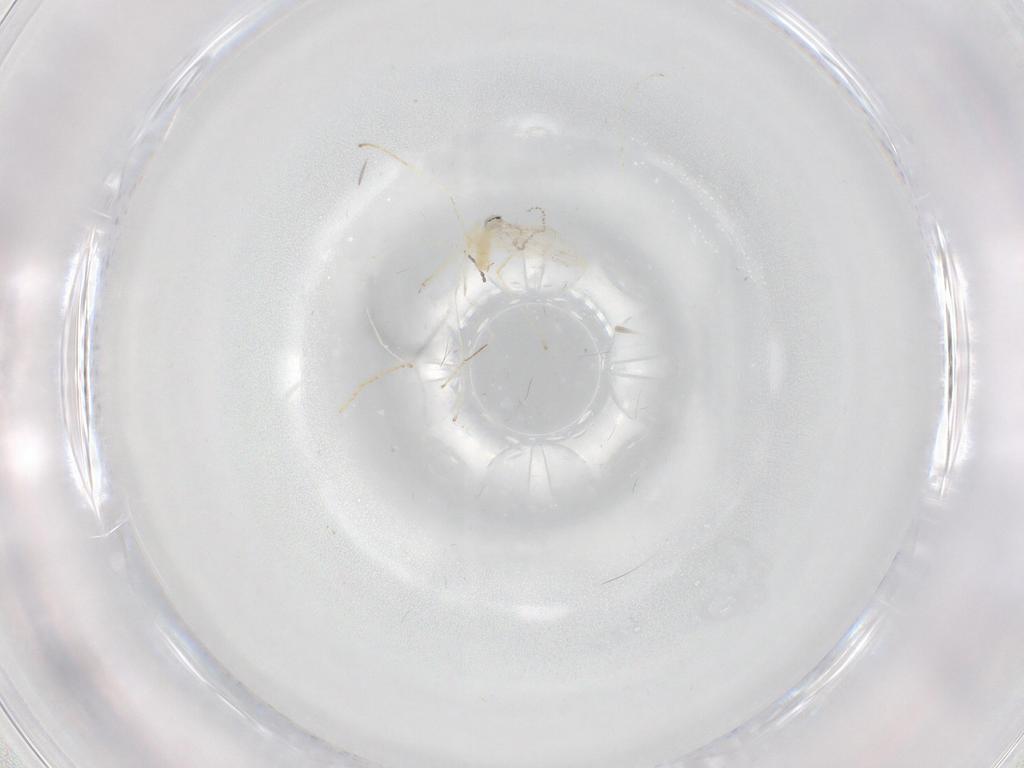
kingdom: Animalia
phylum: Arthropoda
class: Insecta
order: Diptera
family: Cecidomyiidae
